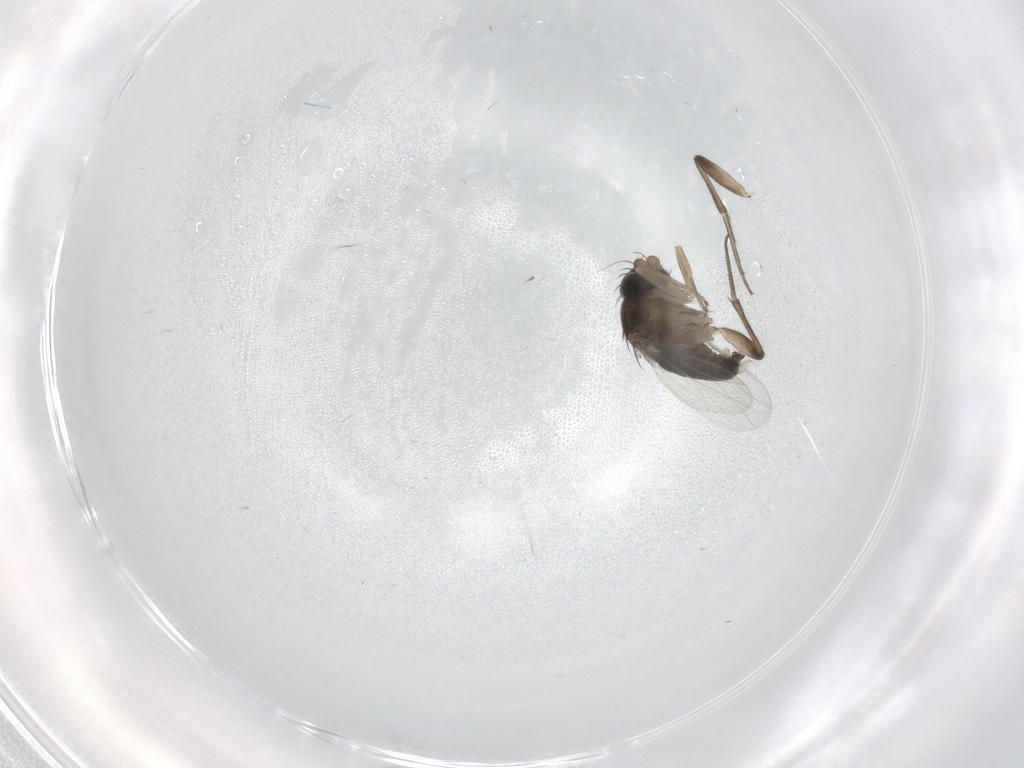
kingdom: Animalia
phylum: Arthropoda
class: Insecta
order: Diptera
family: Phoridae
